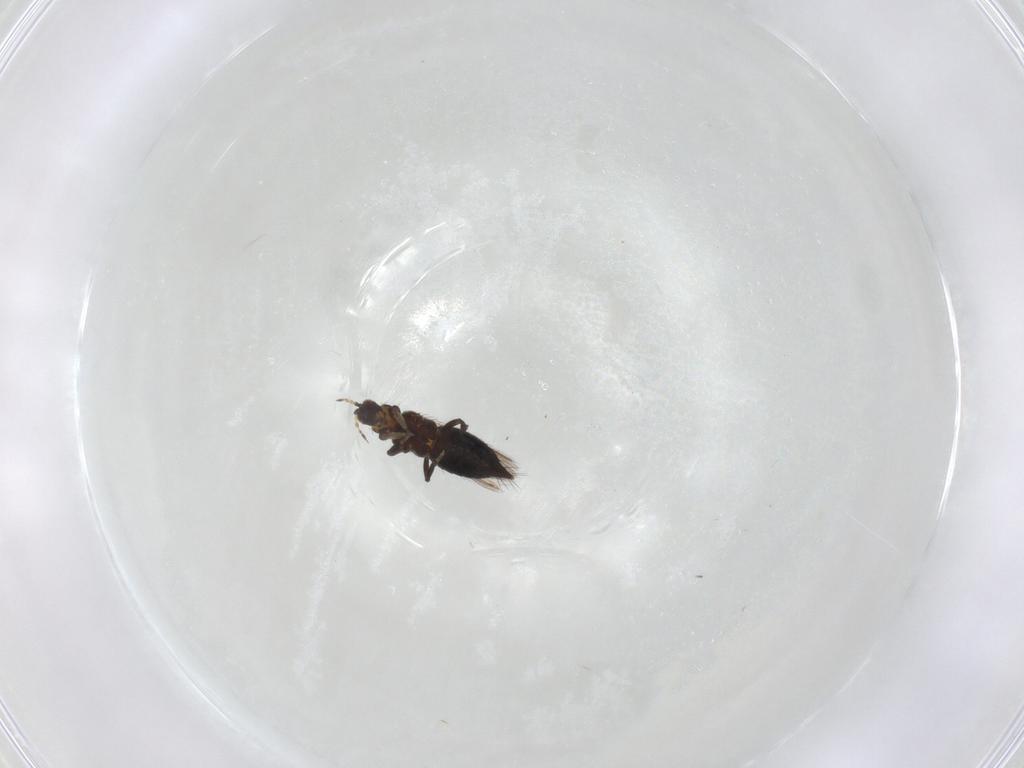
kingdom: Animalia
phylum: Arthropoda
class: Insecta
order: Thysanoptera
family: Thripidae
